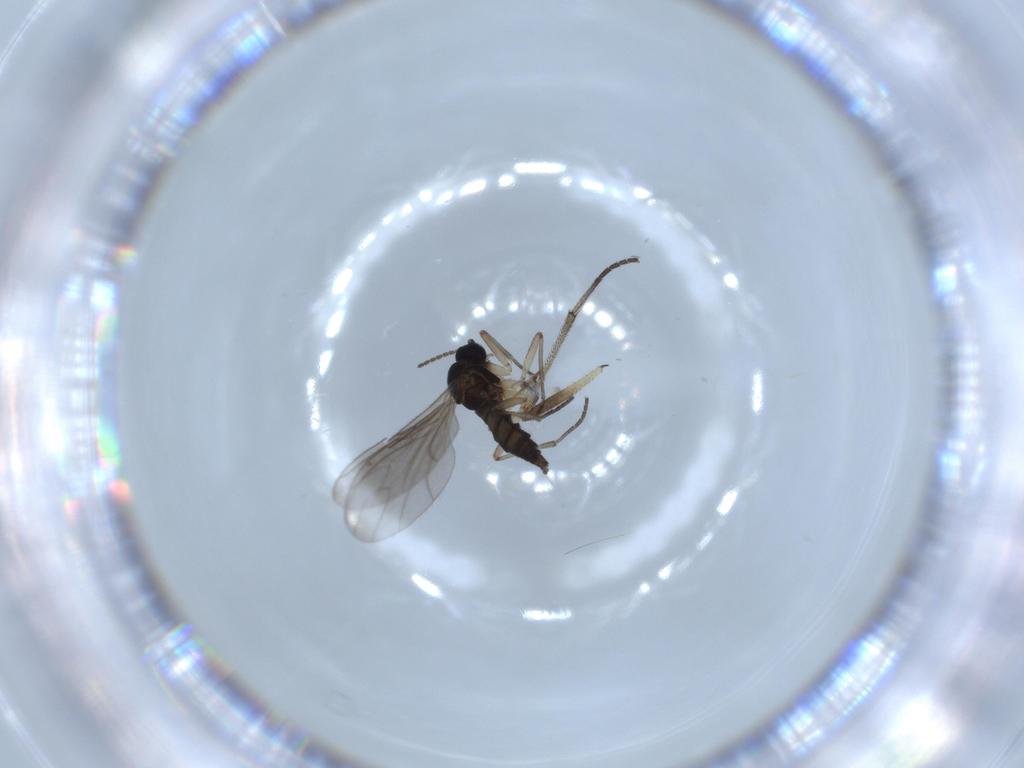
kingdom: Animalia
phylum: Arthropoda
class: Insecta
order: Diptera
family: Sciaridae
